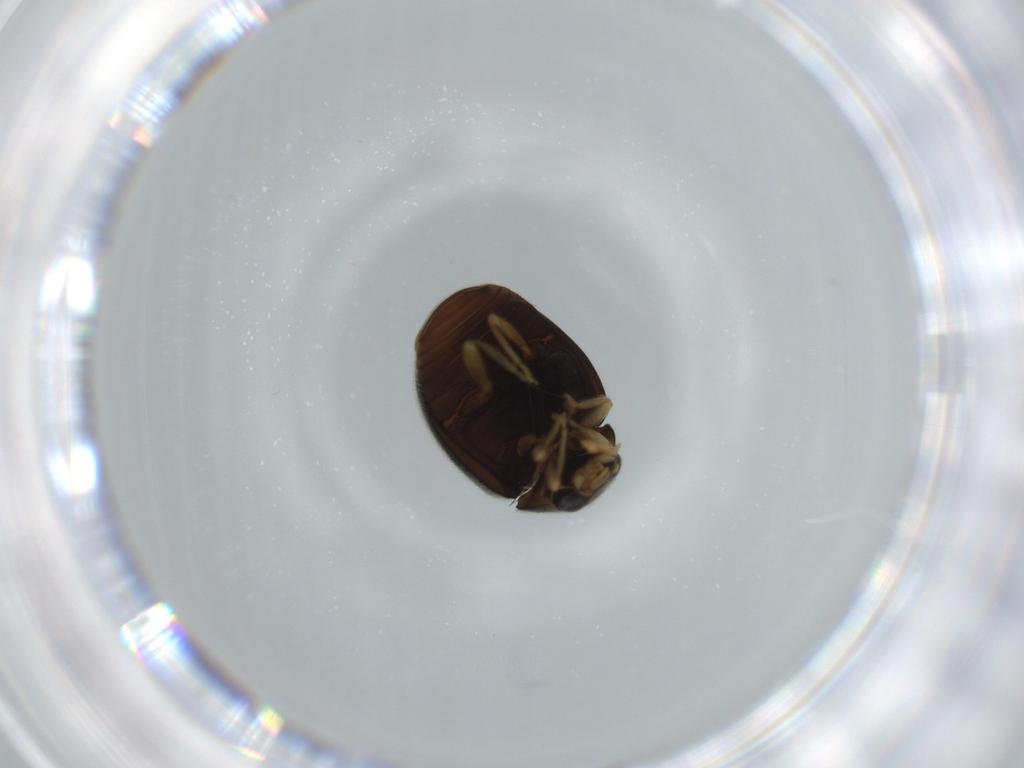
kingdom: Animalia
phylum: Arthropoda
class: Insecta
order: Coleoptera
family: Coccinellidae
